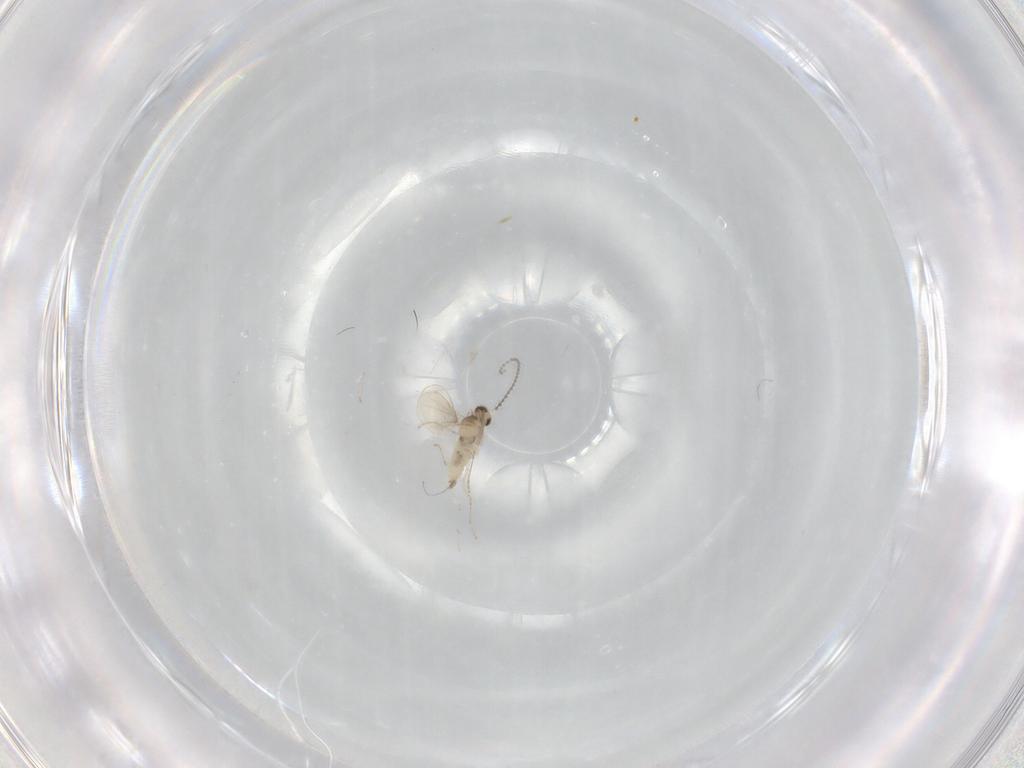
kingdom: Animalia
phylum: Arthropoda
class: Insecta
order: Diptera
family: Cecidomyiidae
